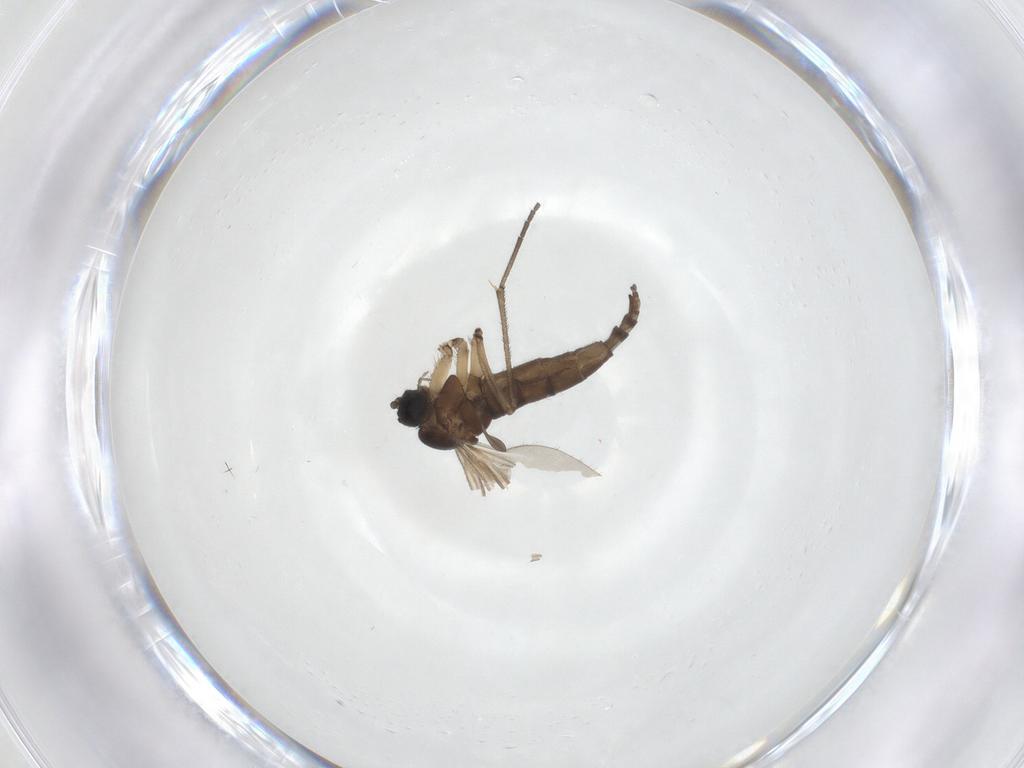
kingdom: Animalia
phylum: Arthropoda
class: Insecta
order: Diptera
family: Sciaridae
